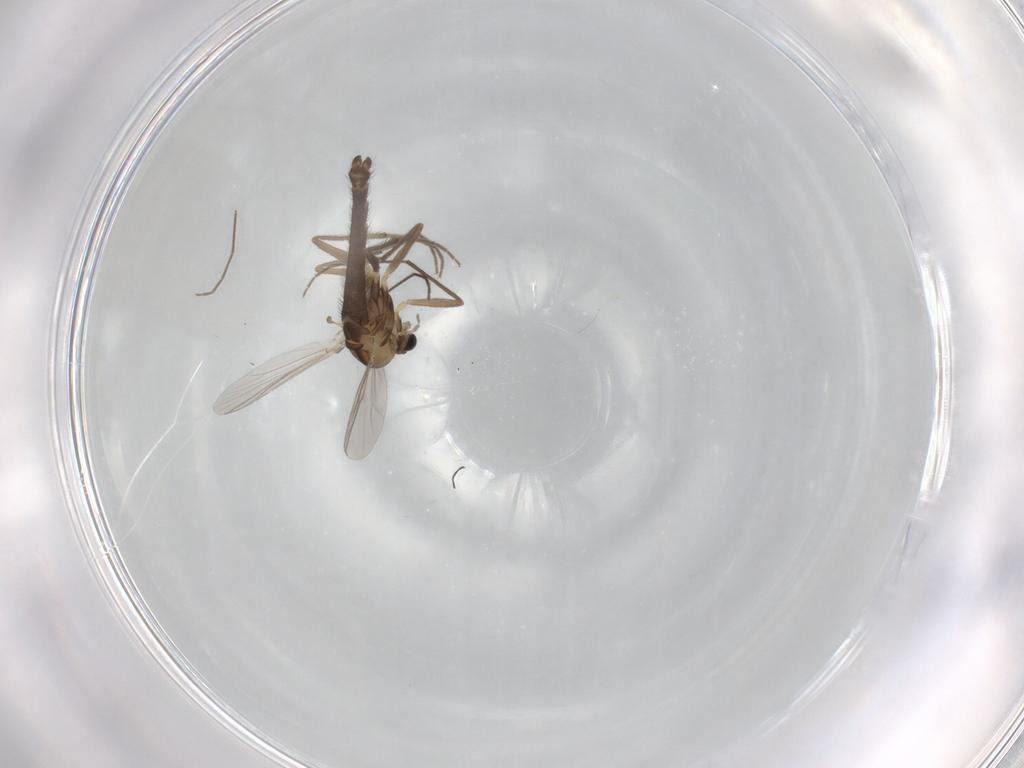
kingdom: Animalia
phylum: Arthropoda
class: Insecta
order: Diptera
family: Chironomidae
